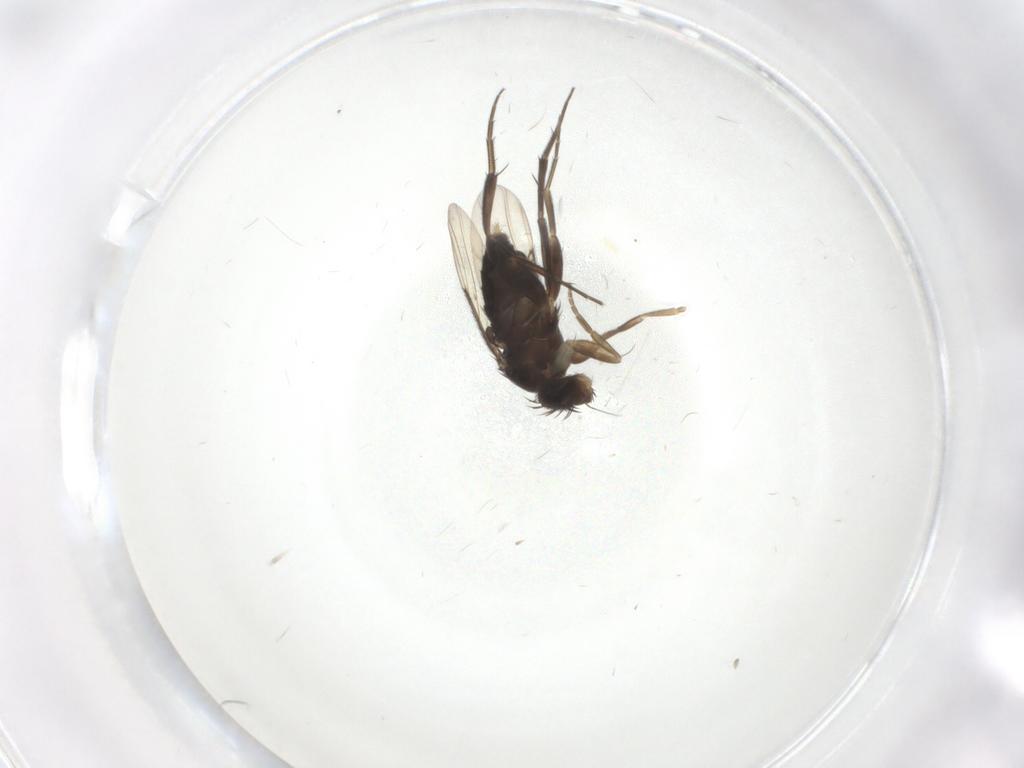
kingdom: Animalia
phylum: Arthropoda
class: Insecta
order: Diptera
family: Phoridae
